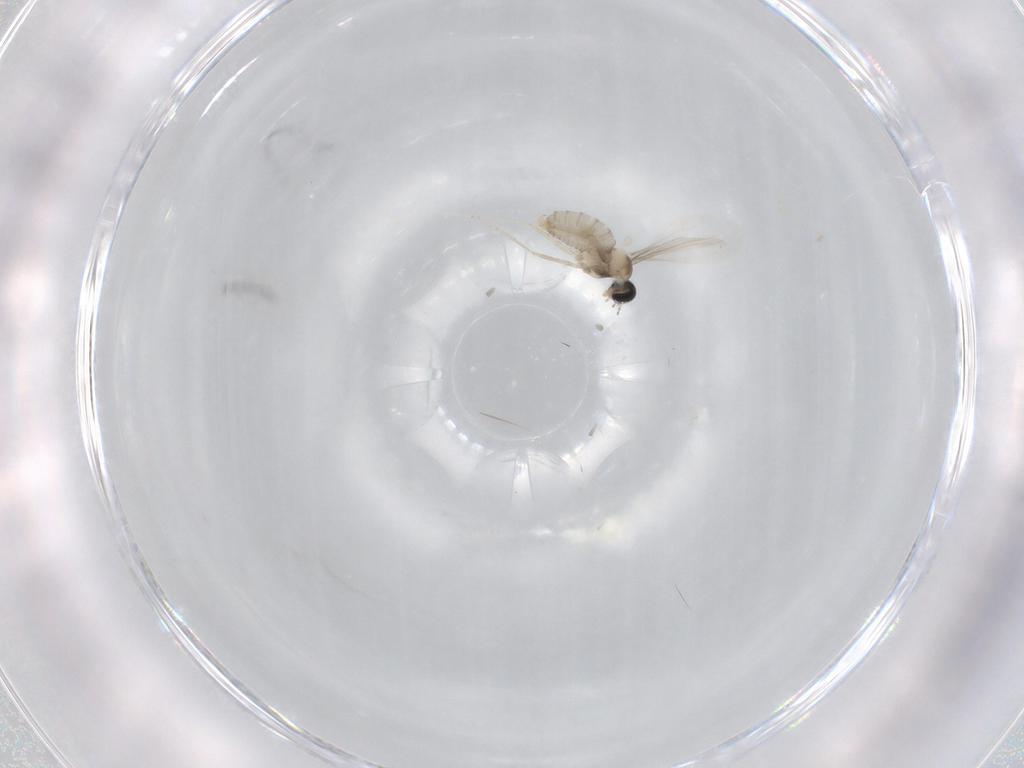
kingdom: Animalia
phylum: Arthropoda
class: Insecta
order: Diptera
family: Cecidomyiidae
